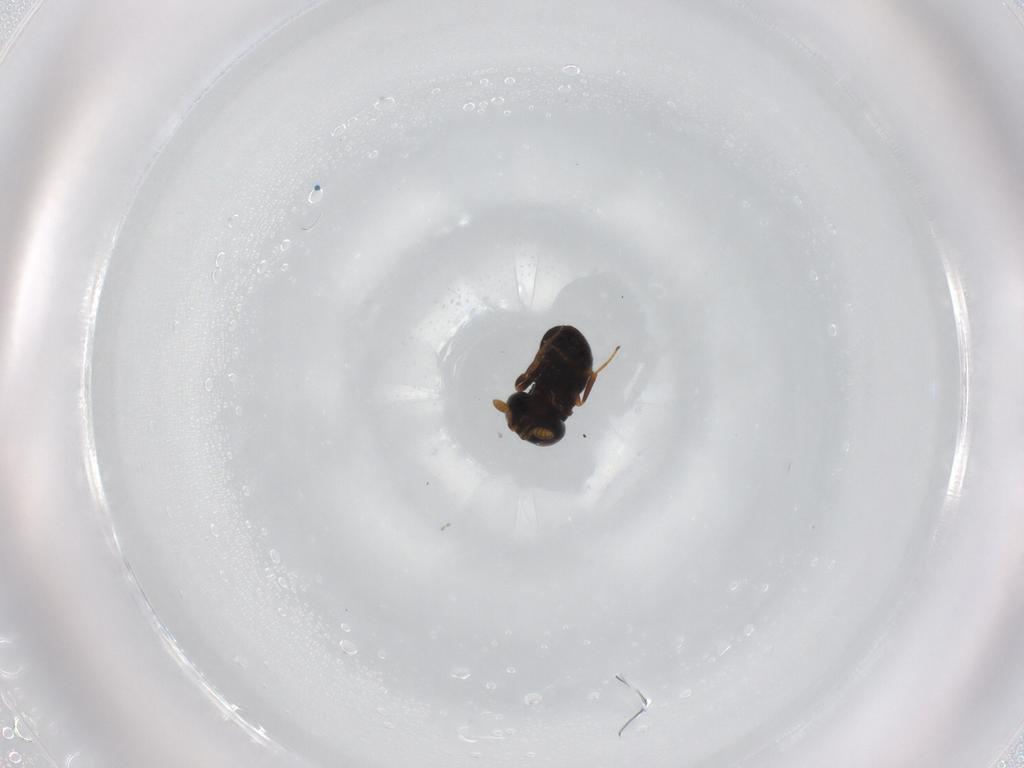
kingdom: Animalia
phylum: Arthropoda
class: Insecta
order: Hymenoptera
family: Scelionidae
